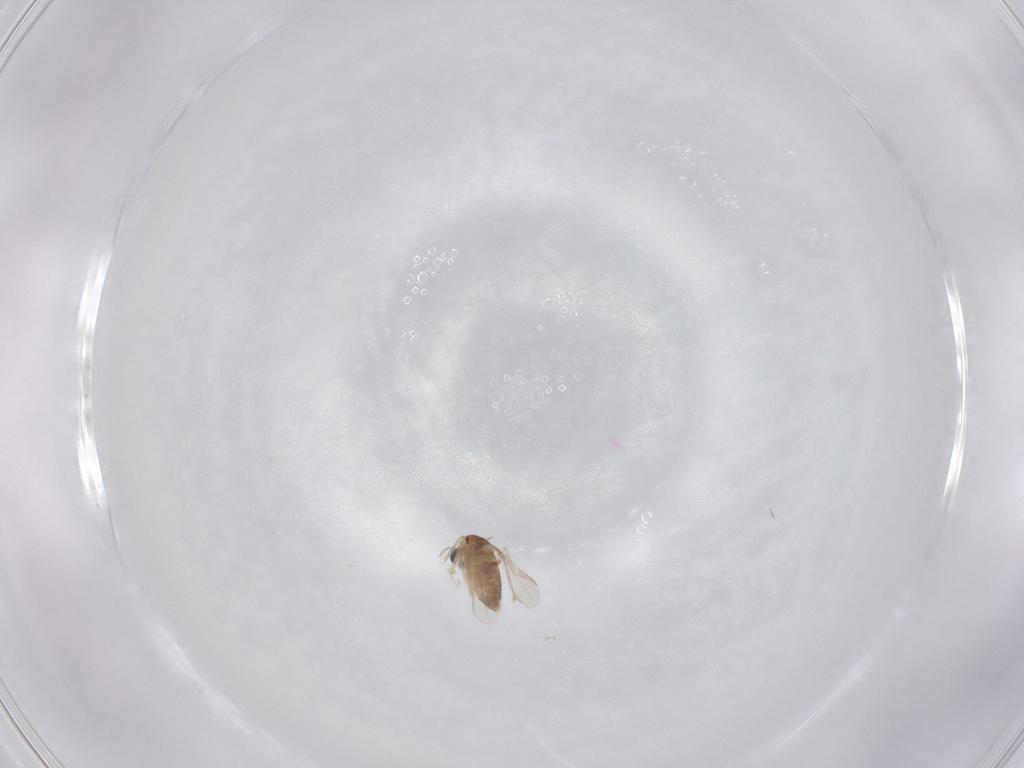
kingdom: Animalia
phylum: Arthropoda
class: Insecta
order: Diptera
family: Chironomidae
